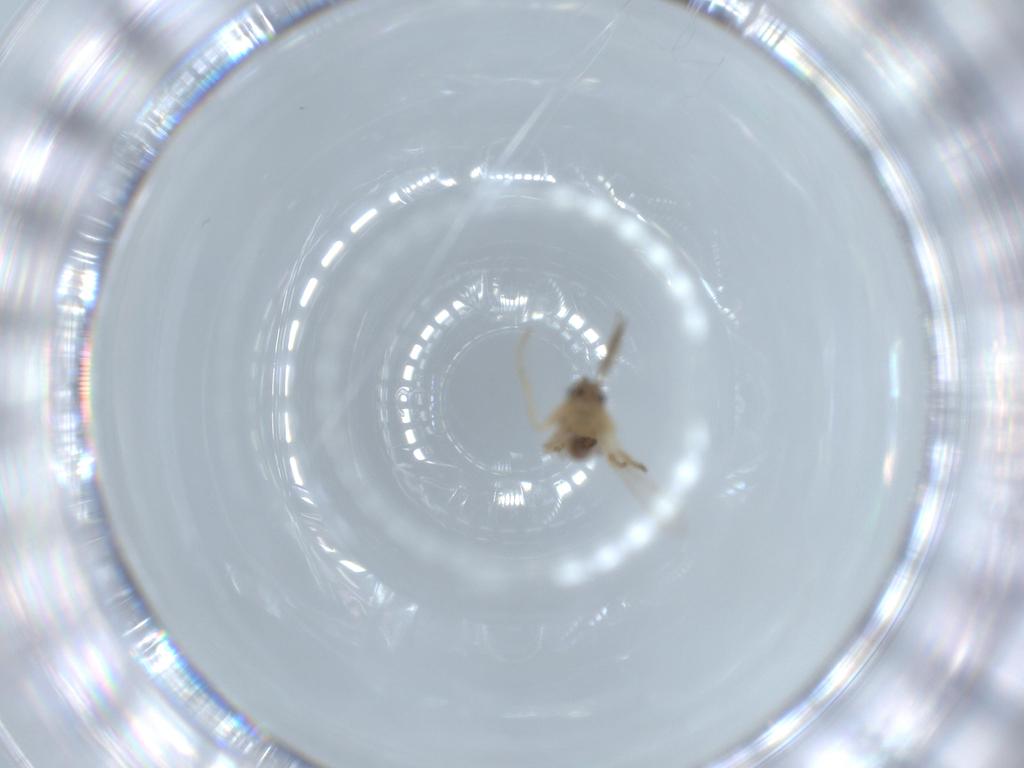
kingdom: Animalia
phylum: Arthropoda
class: Insecta
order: Diptera
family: Ceratopogonidae
